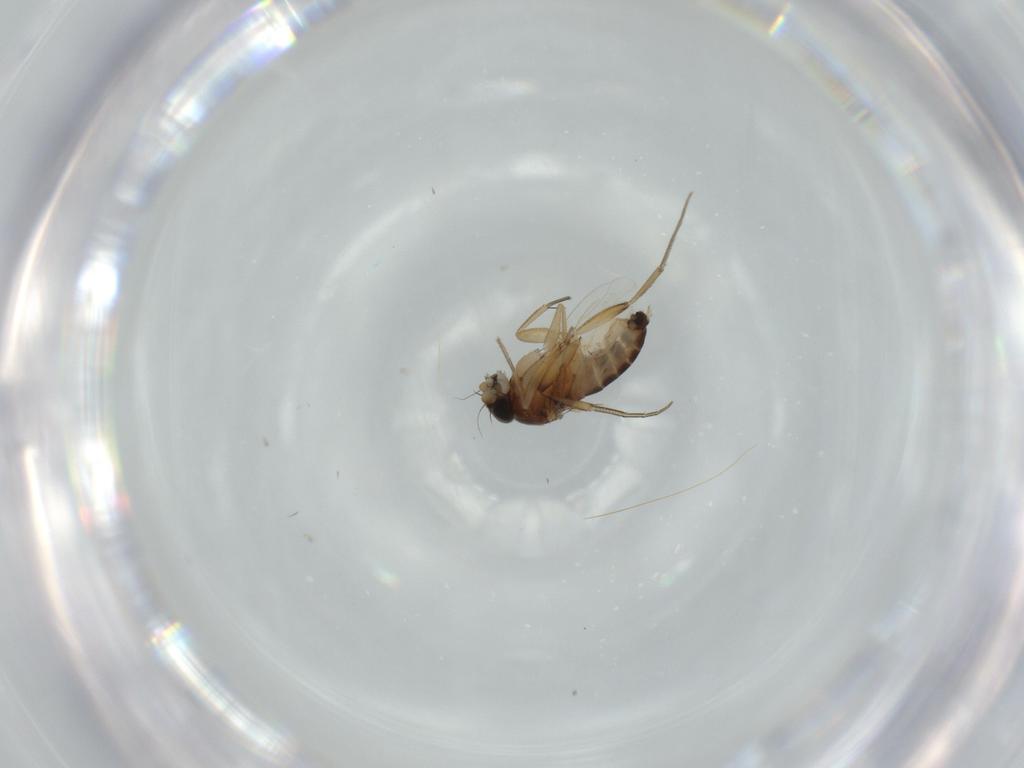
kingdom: Animalia
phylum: Arthropoda
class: Insecta
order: Diptera
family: Phoridae
